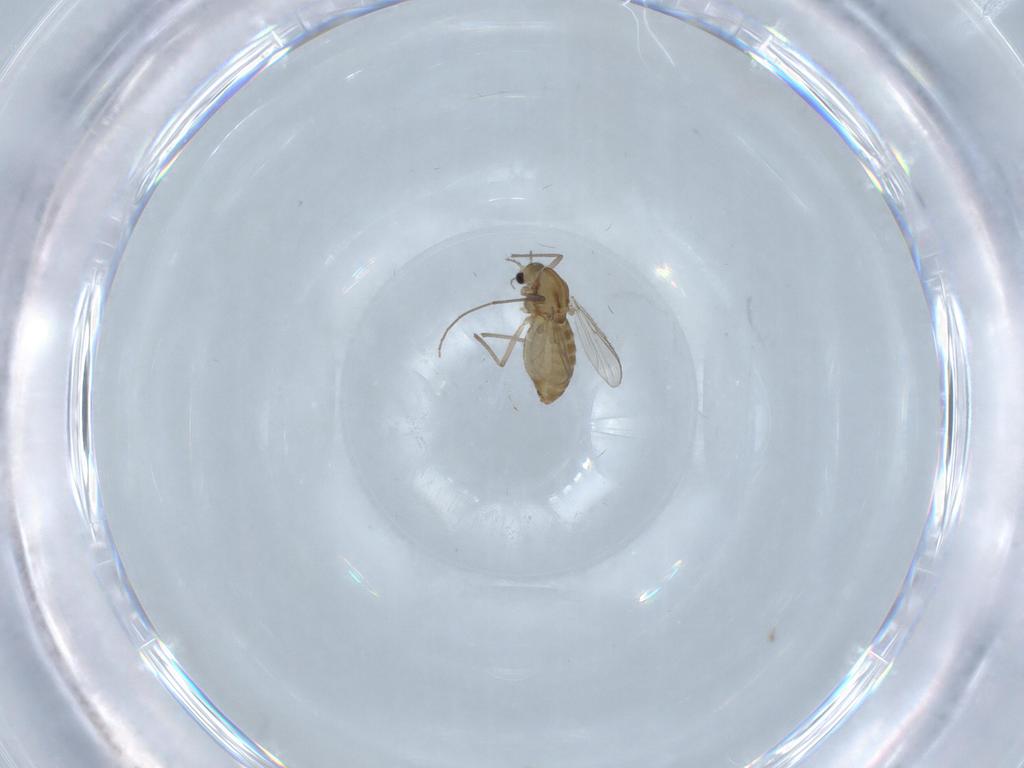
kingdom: Animalia
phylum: Arthropoda
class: Insecta
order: Diptera
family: Chironomidae
